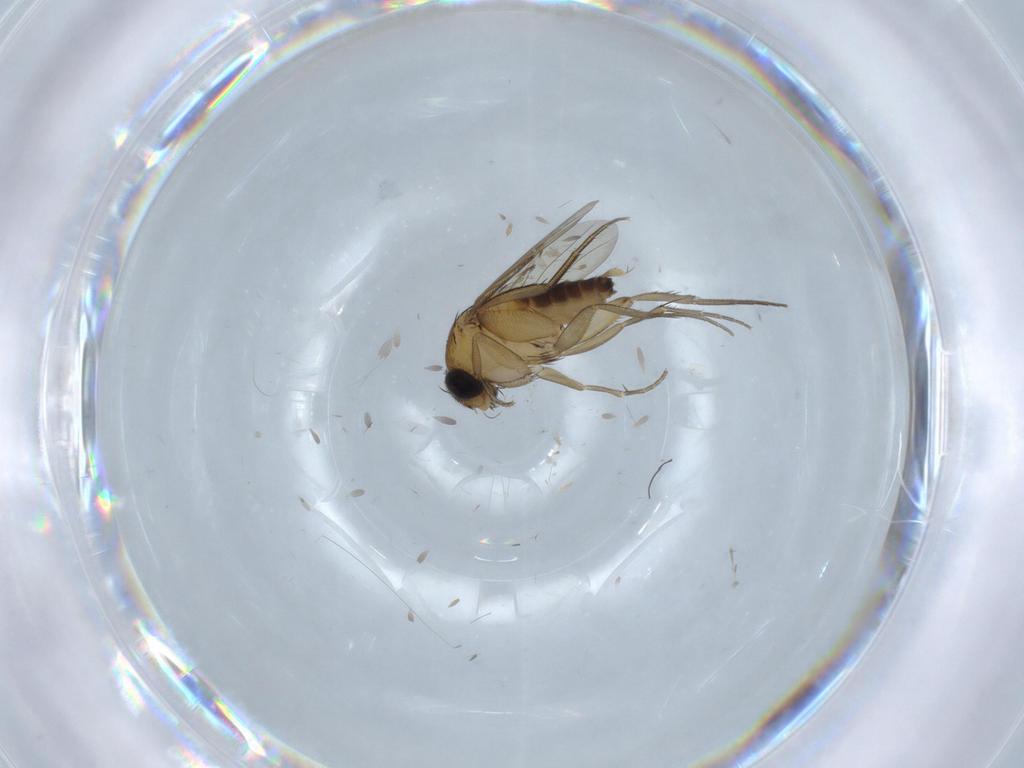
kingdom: Animalia
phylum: Arthropoda
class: Insecta
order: Diptera
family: Phoridae
